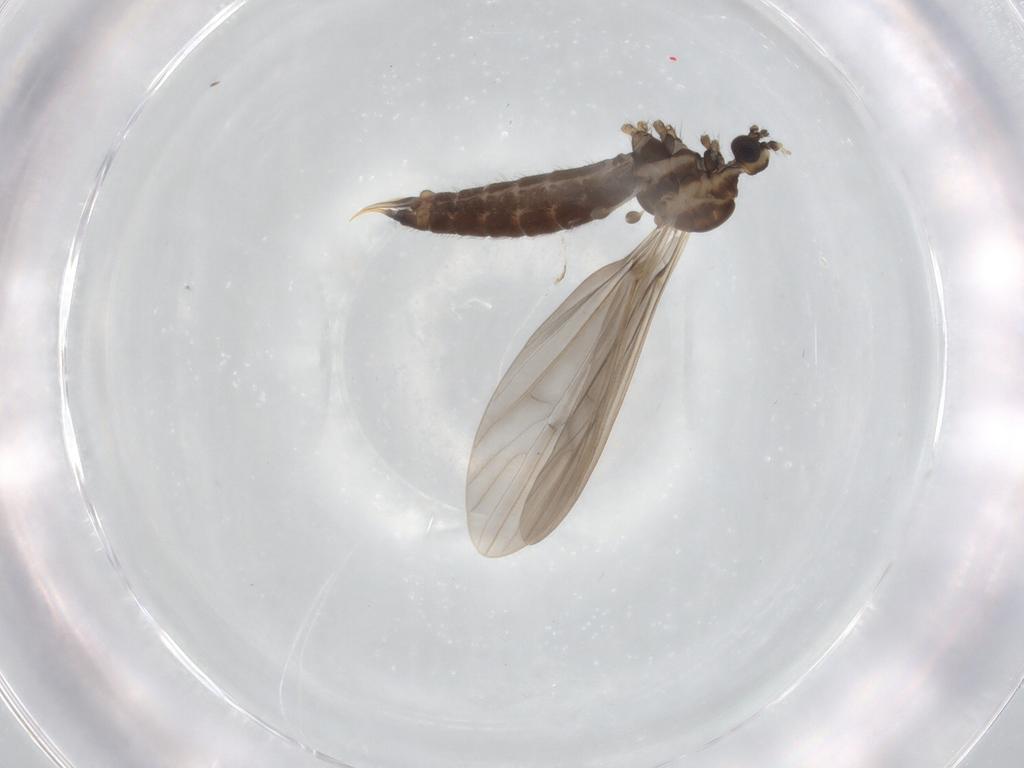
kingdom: Animalia
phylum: Arthropoda
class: Insecta
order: Diptera
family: Limoniidae
